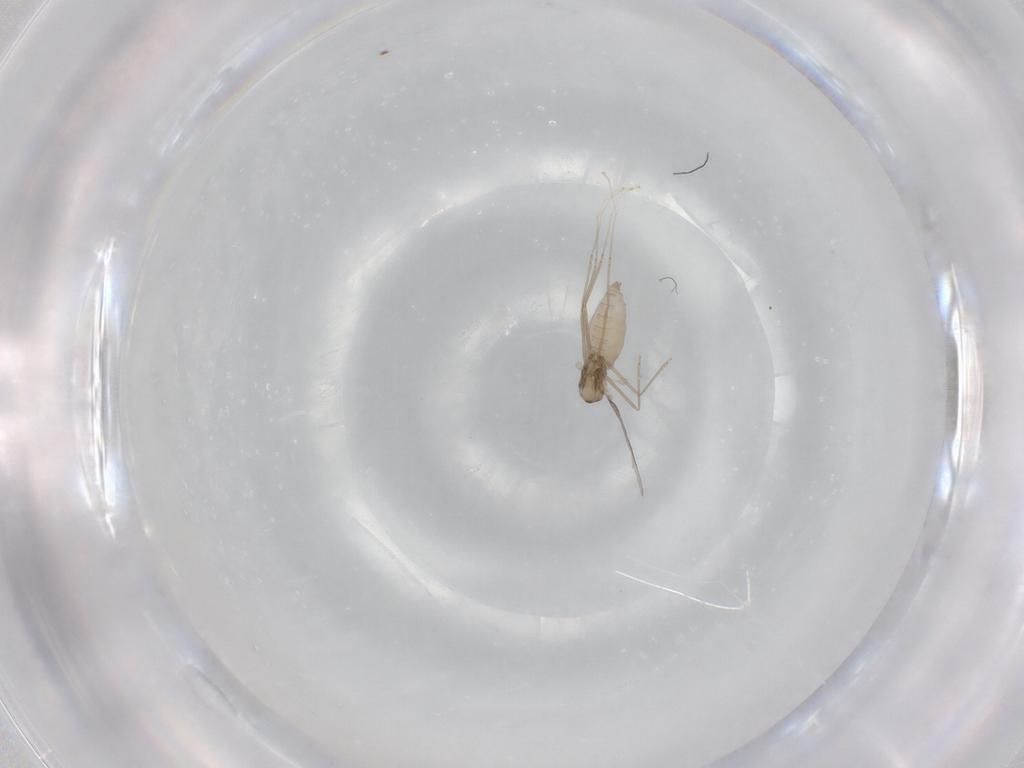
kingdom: Animalia
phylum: Arthropoda
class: Insecta
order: Diptera
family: Cecidomyiidae
